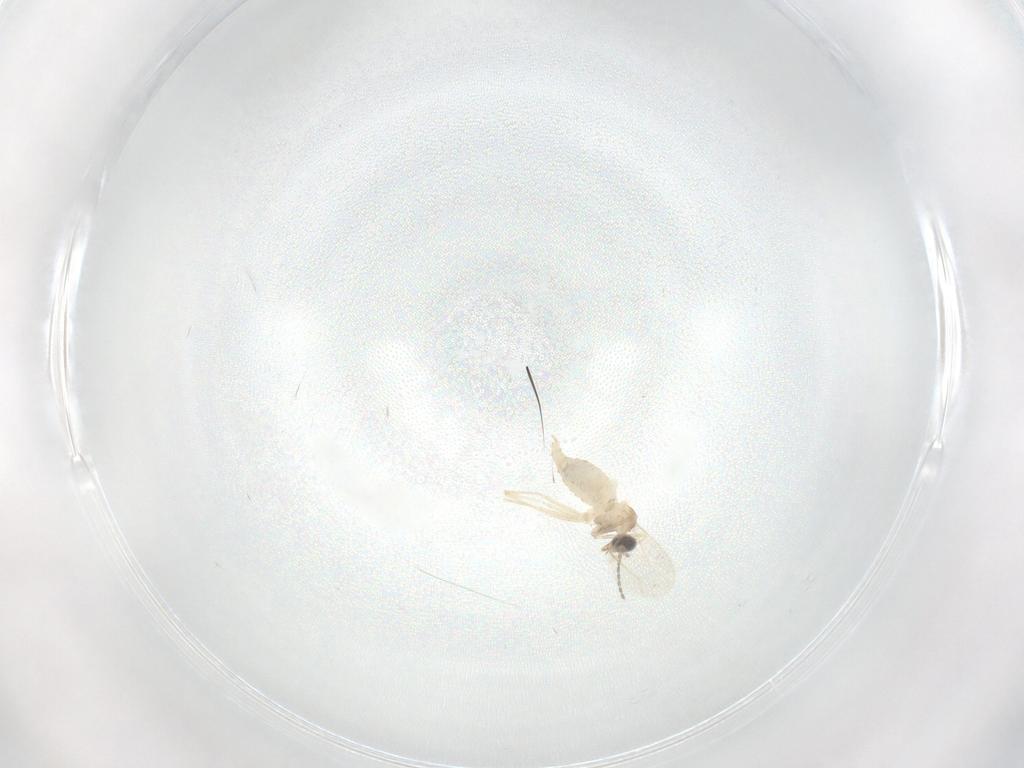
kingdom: Animalia
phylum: Arthropoda
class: Insecta
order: Diptera
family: Cecidomyiidae
